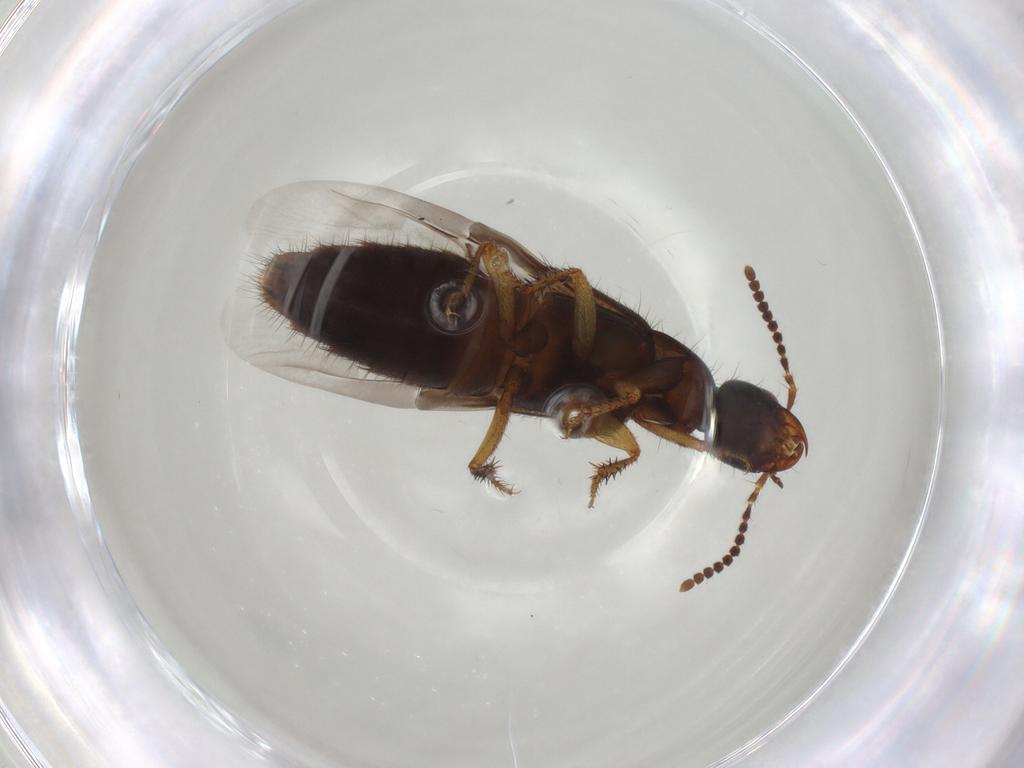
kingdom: Animalia
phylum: Arthropoda
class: Insecta
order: Coleoptera
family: Staphylinidae
